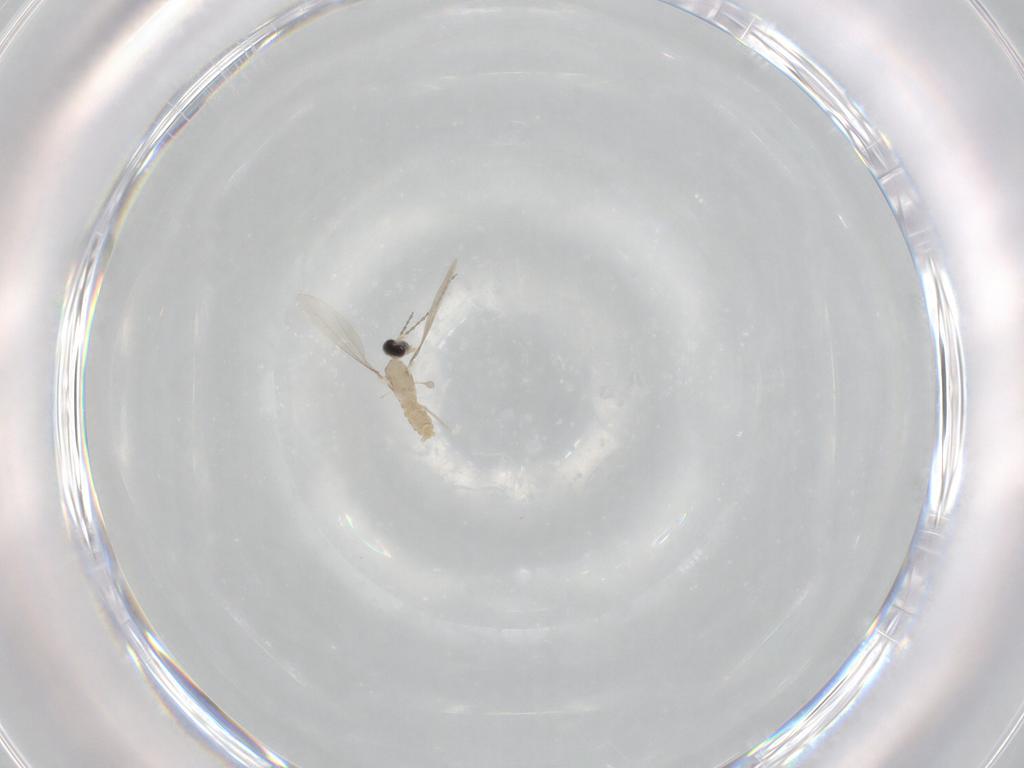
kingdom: Animalia
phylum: Arthropoda
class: Insecta
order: Diptera
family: Cecidomyiidae
